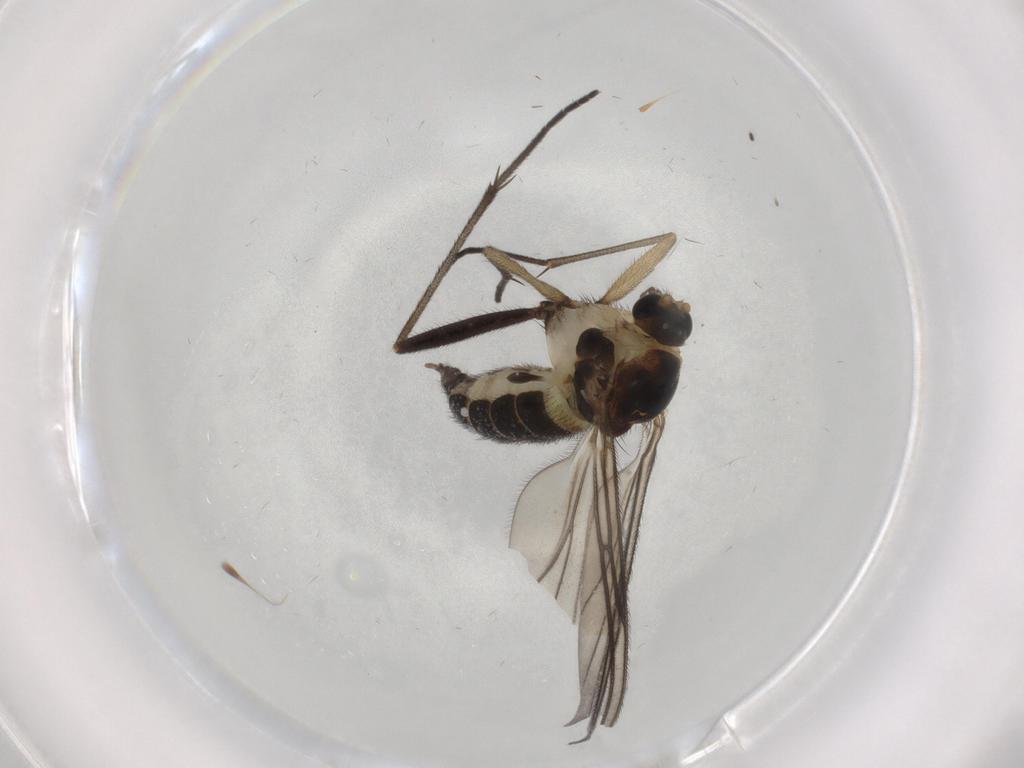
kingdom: Animalia
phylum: Arthropoda
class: Insecta
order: Diptera
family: Sciaridae
